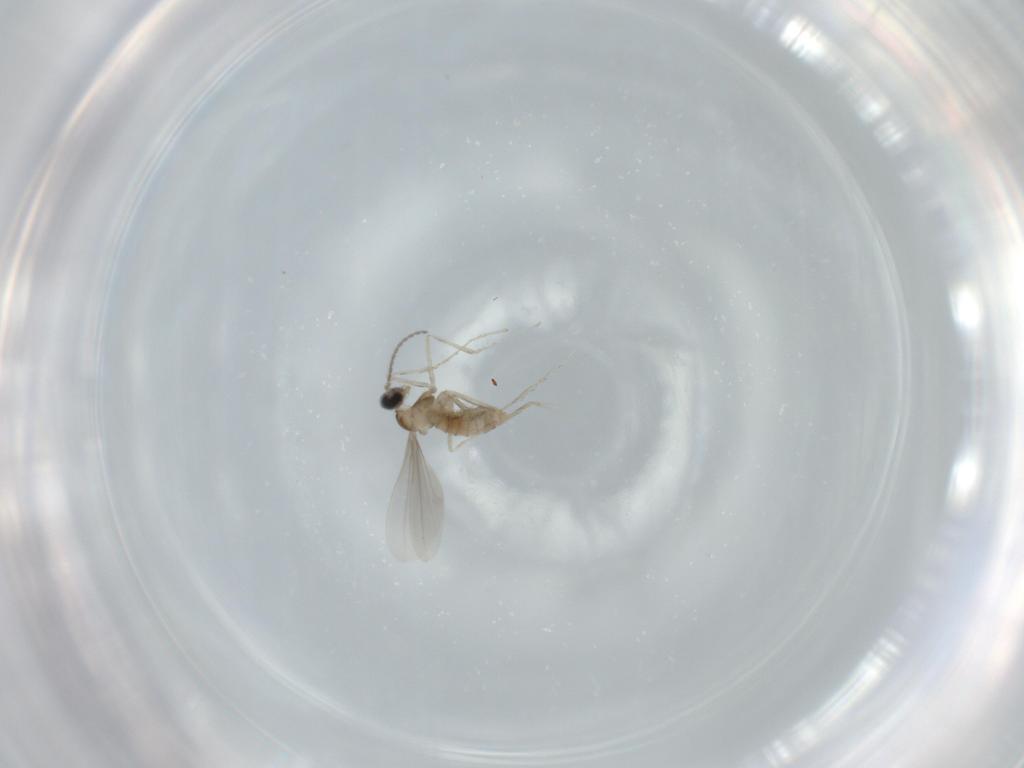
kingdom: Animalia
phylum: Arthropoda
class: Insecta
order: Diptera
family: Cecidomyiidae
